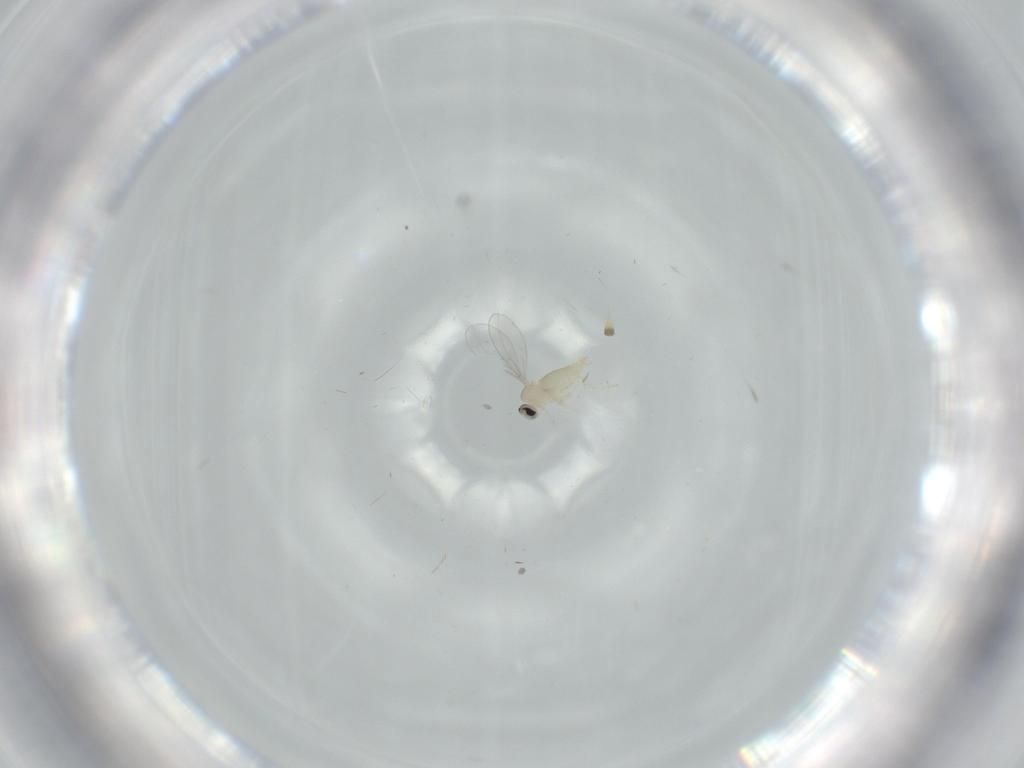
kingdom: Animalia
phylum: Arthropoda
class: Insecta
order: Diptera
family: Cecidomyiidae
